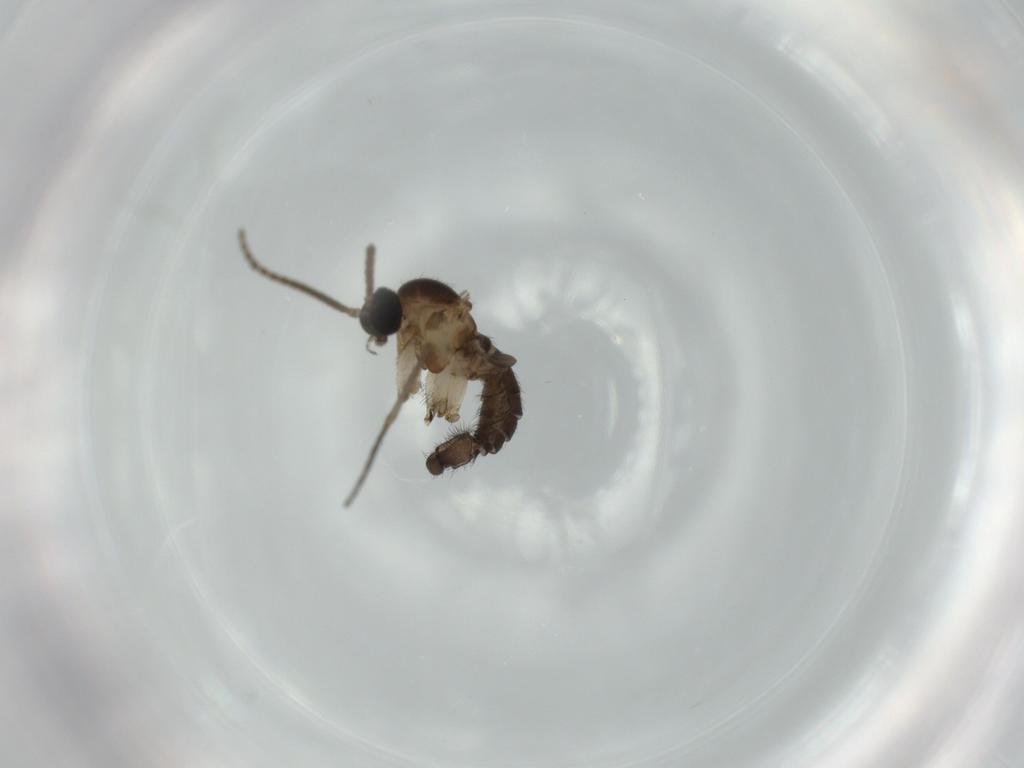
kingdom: Animalia
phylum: Arthropoda
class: Insecta
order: Diptera
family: Sciaridae
